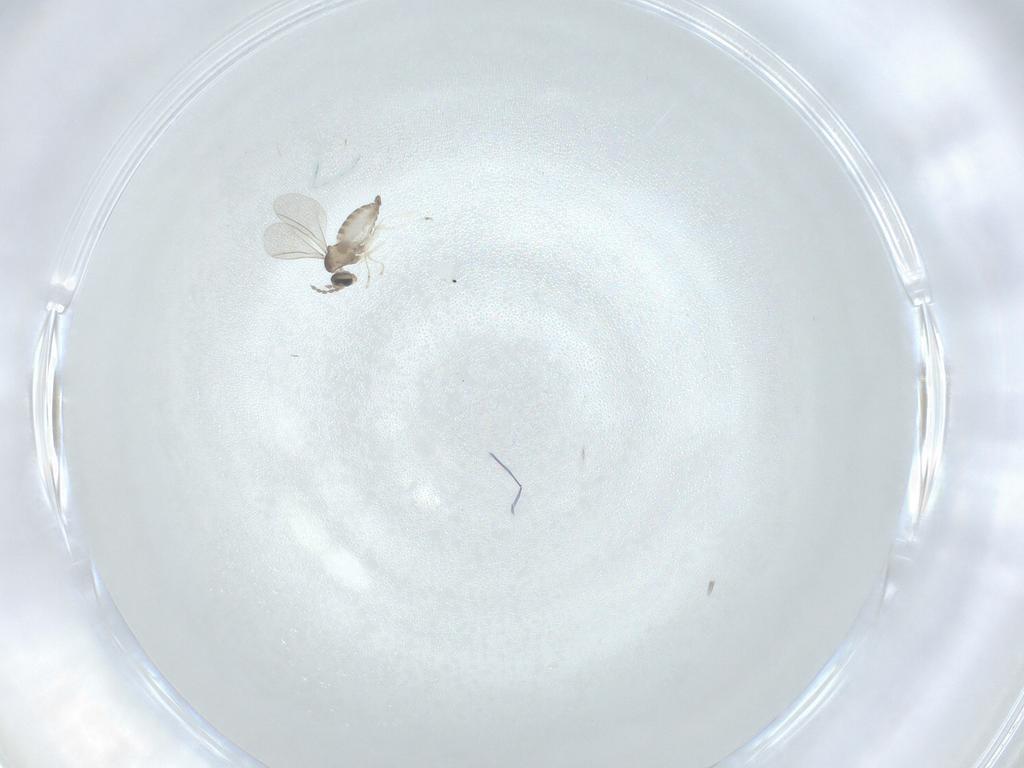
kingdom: Animalia
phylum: Arthropoda
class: Insecta
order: Diptera
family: Cecidomyiidae
